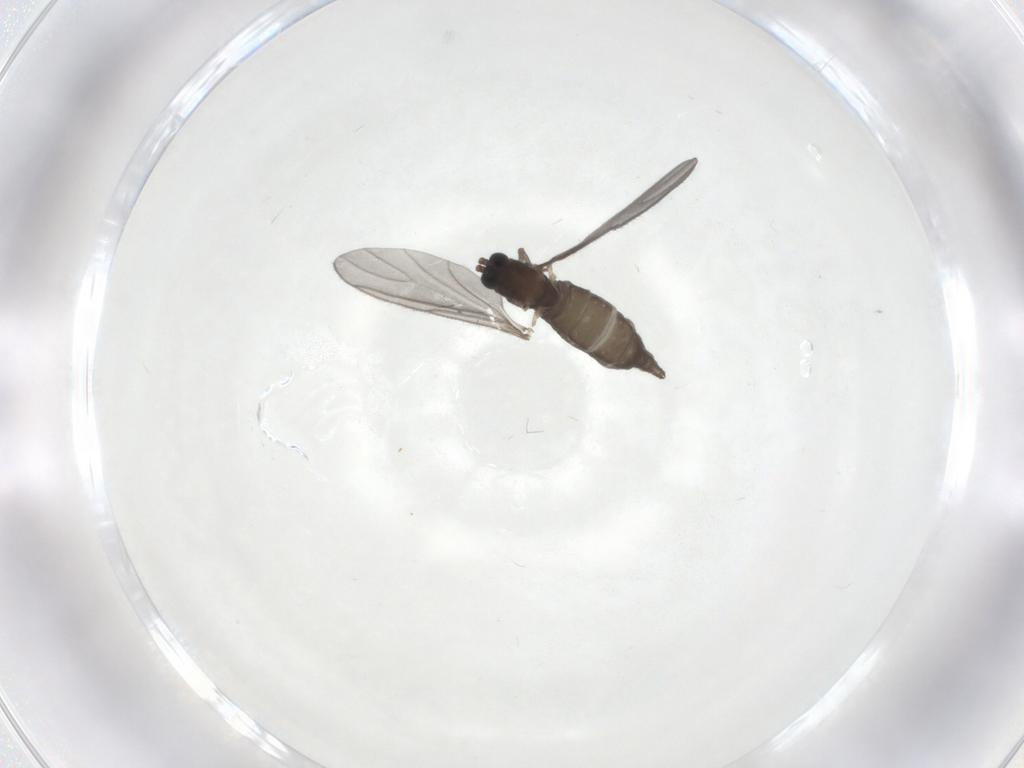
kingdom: Animalia
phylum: Arthropoda
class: Insecta
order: Diptera
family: Sciaridae
